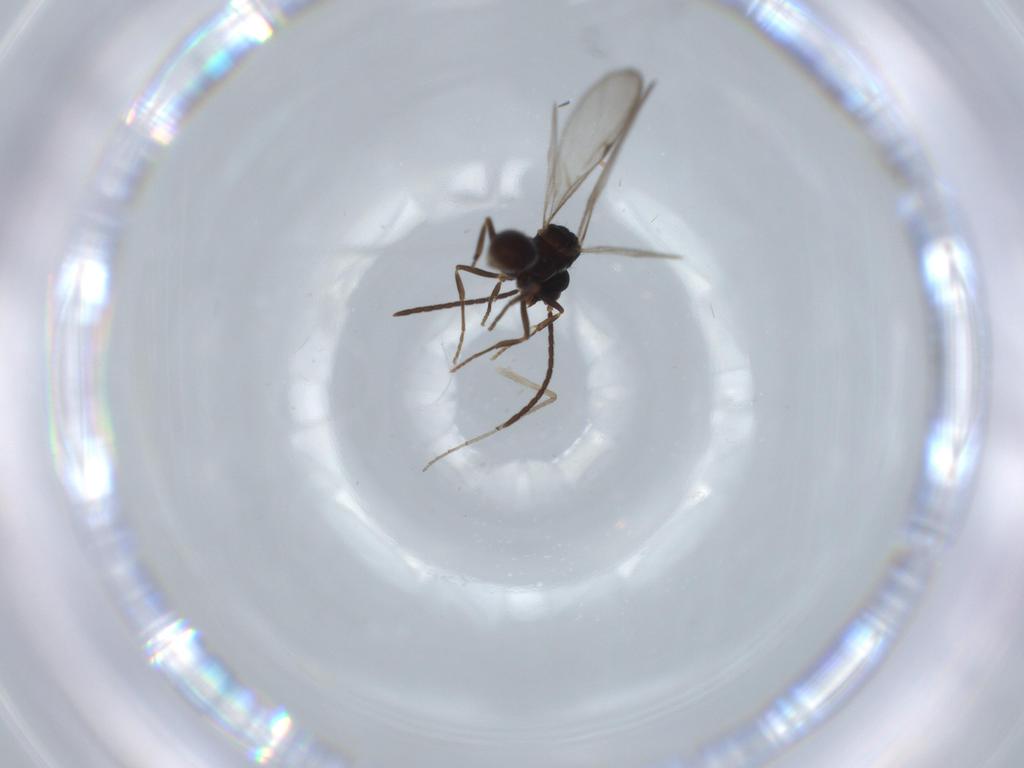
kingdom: Animalia
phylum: Arthropoda
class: Insecta
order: Hymenoptera
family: Formicidae
